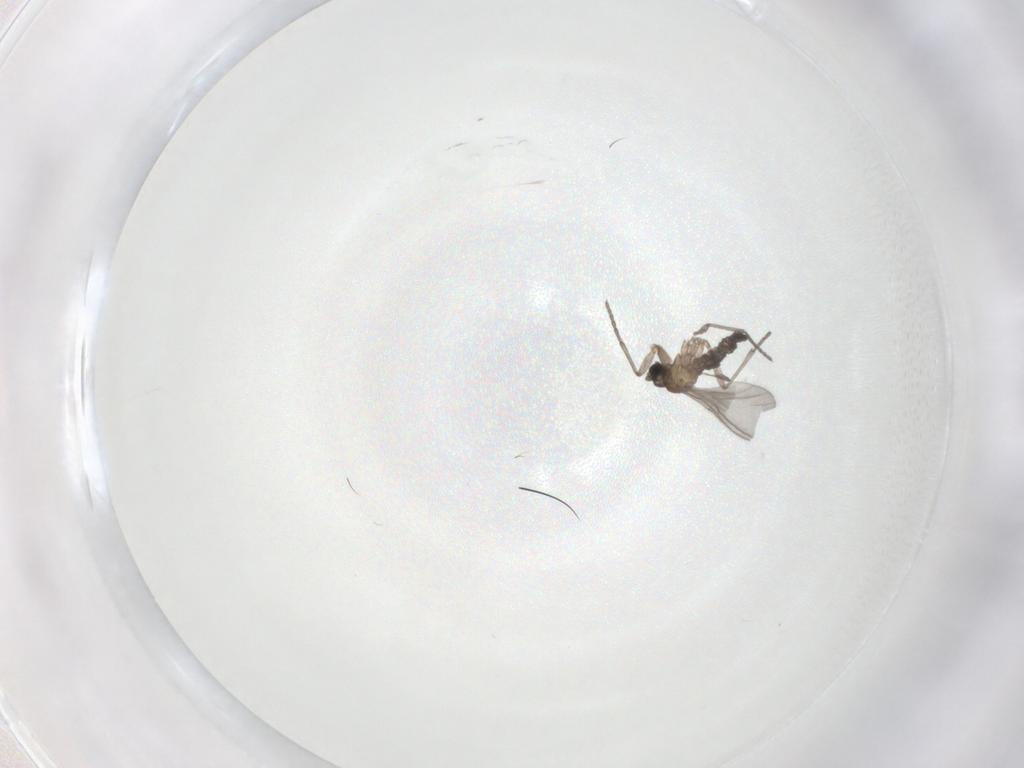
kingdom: Animalia
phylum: Arthropoda
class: Insecta
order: Diptera
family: Sciaridae
